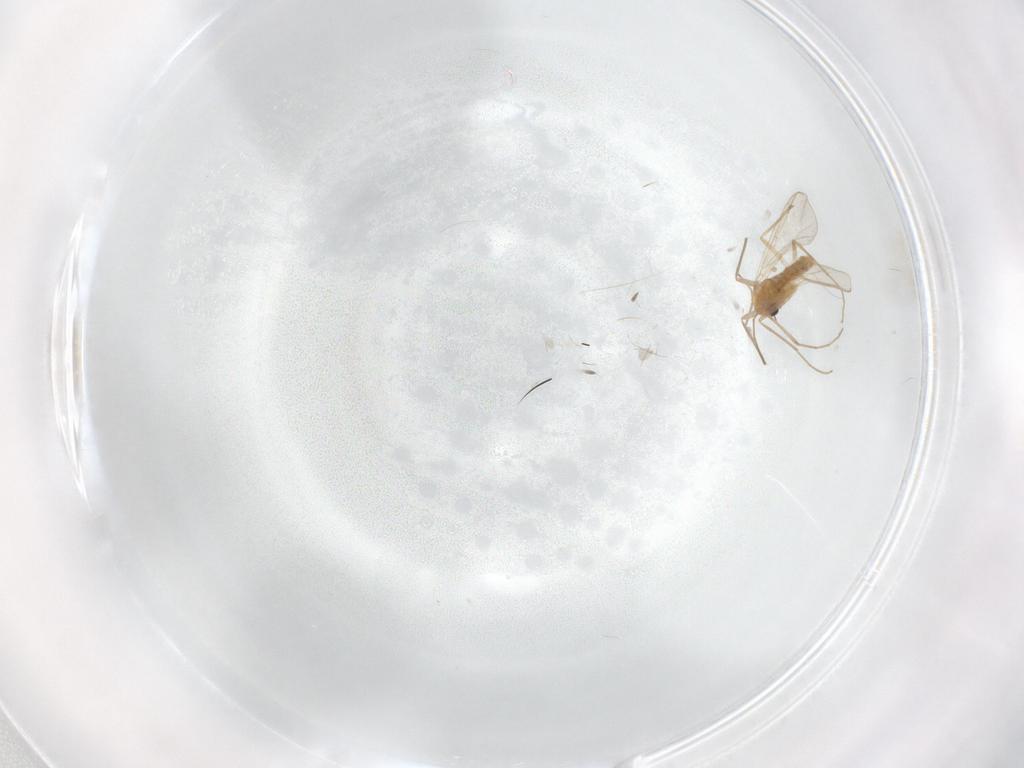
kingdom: Animalia
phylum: Arthropoda
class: Insecta
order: Diptera
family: Chironomidae
